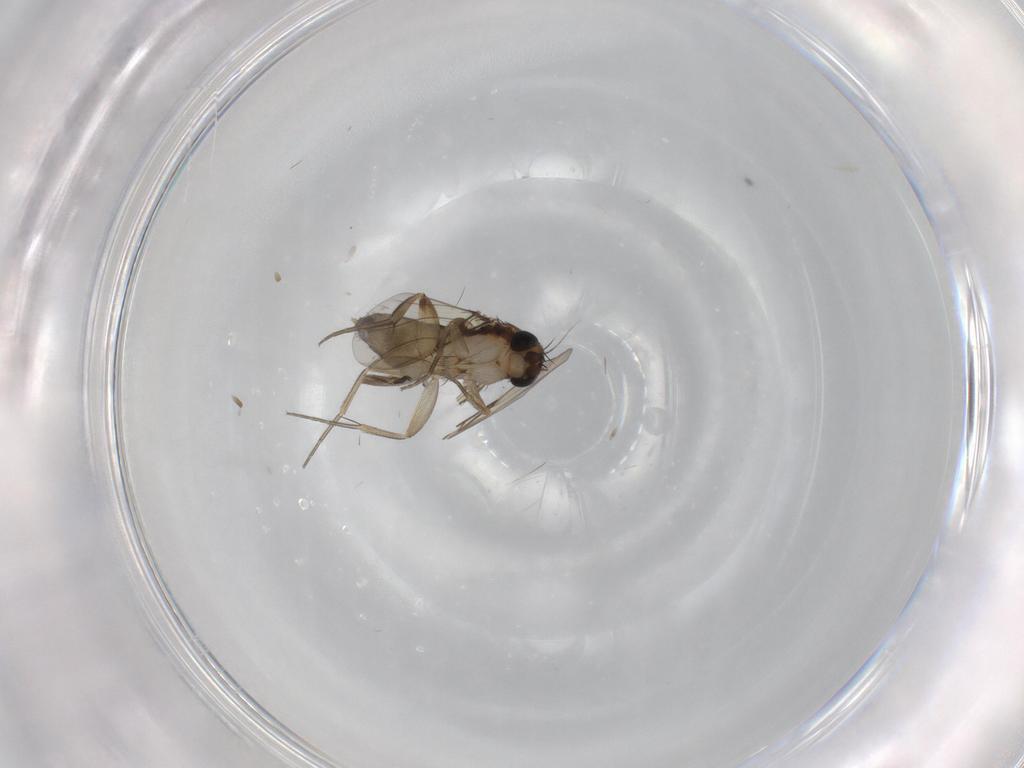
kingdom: Animalia
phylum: Arthropoda
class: Insecta
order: Diptera
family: Phoridae
